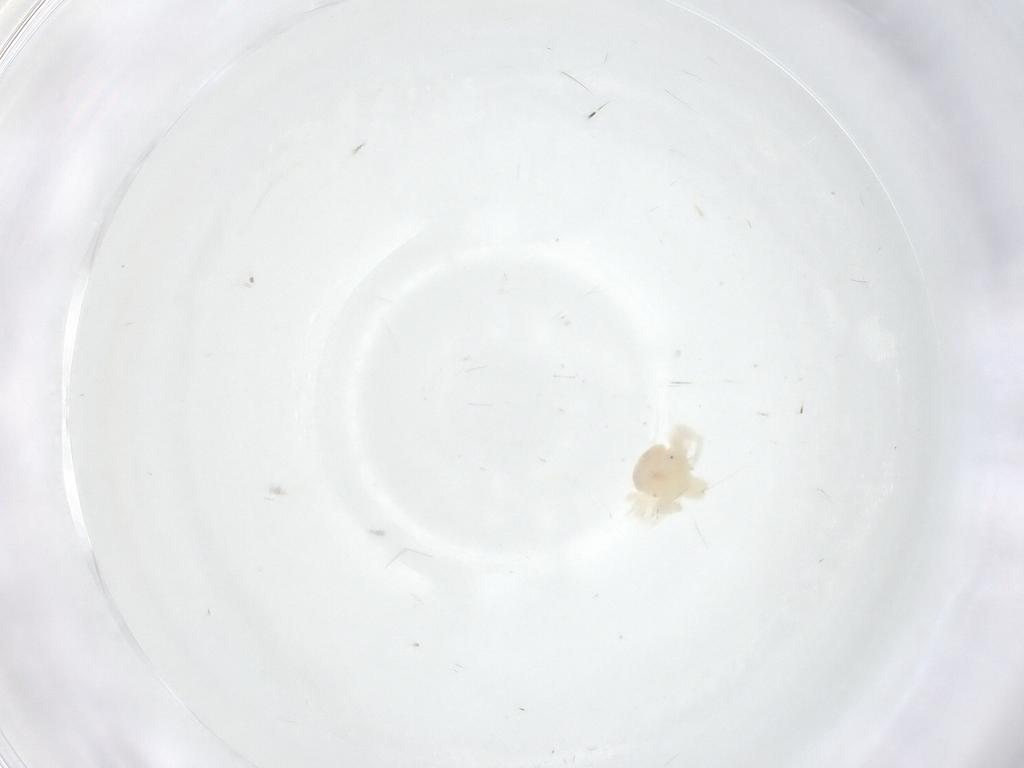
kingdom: Animalia
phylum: Arthropoda
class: Arachnida
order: Trombidiformes
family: Anystidae
